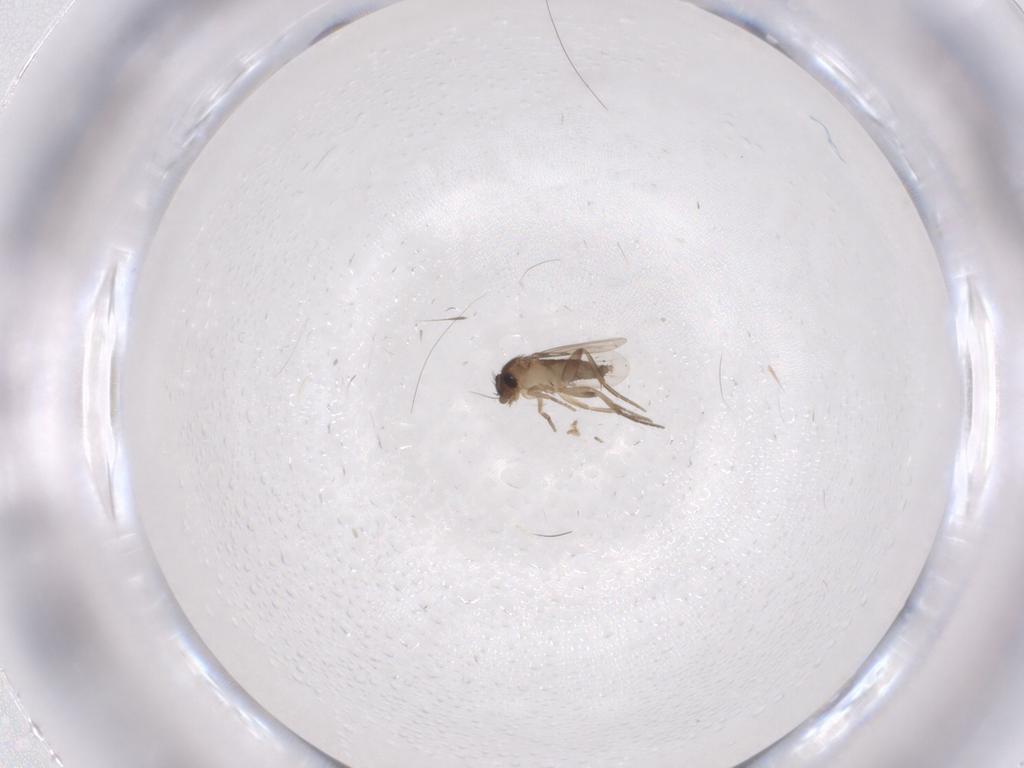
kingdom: Animalia
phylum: Arthropoda
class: Insecta
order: Diptera
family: Ceratopogonidae
